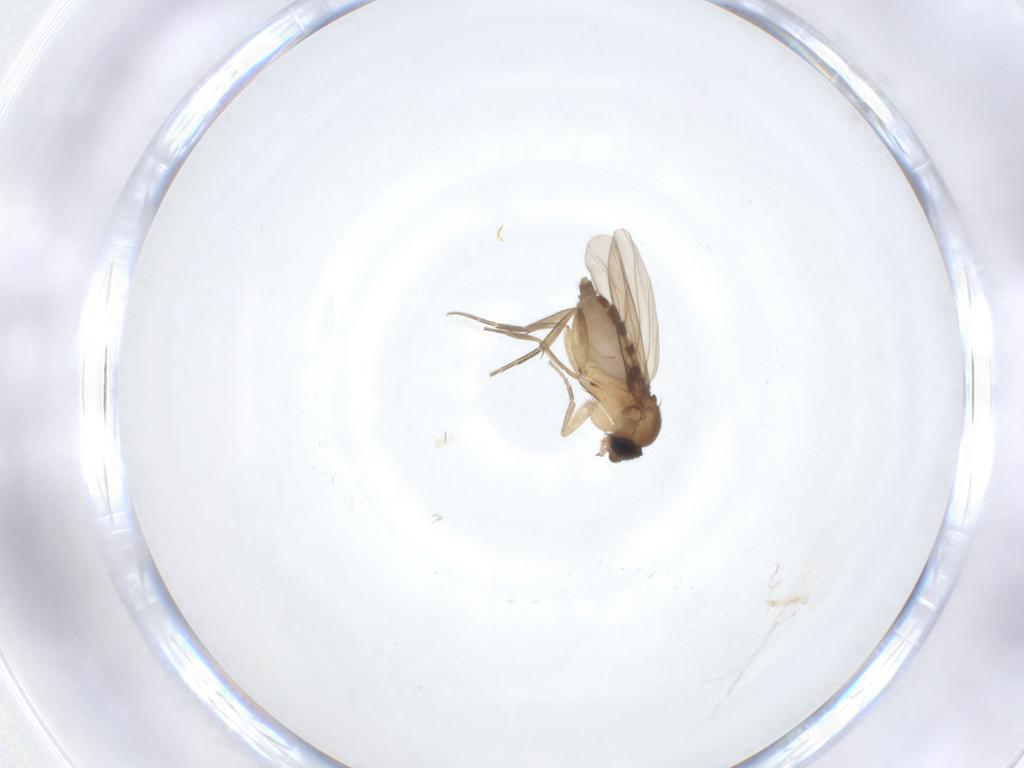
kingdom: Animalia
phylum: Arthropoda
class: Insecta
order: Diptera
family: Phoridae
